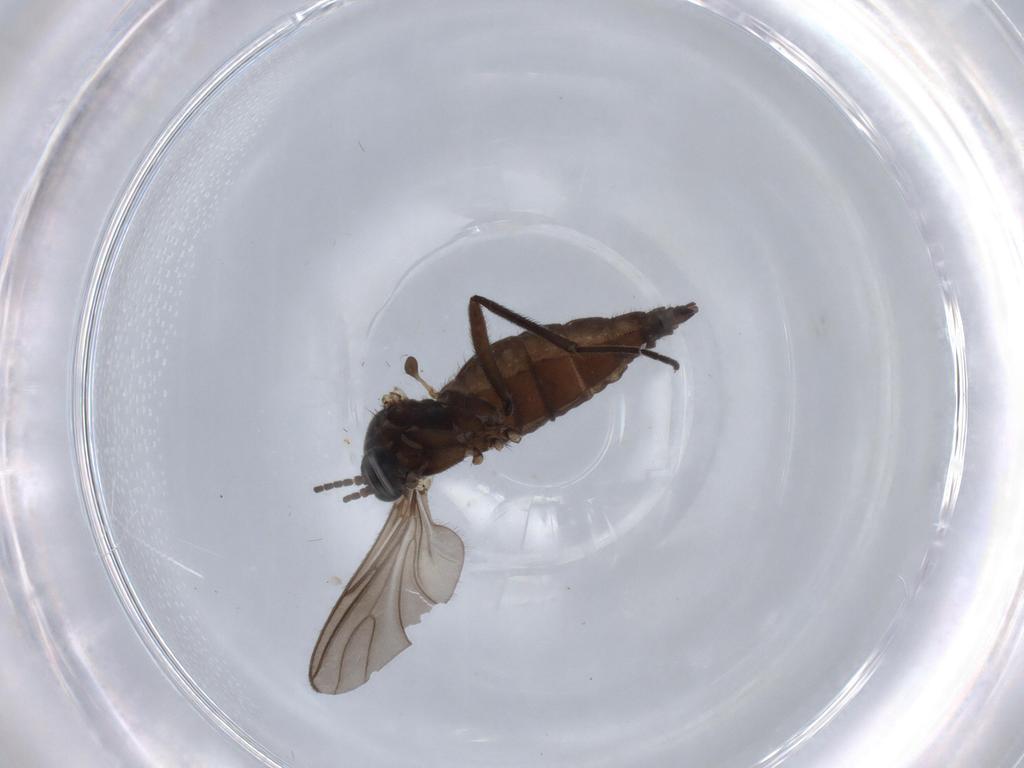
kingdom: Animalia
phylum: Arthropoda
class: Insecta
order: Diptera
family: Sciaridae
